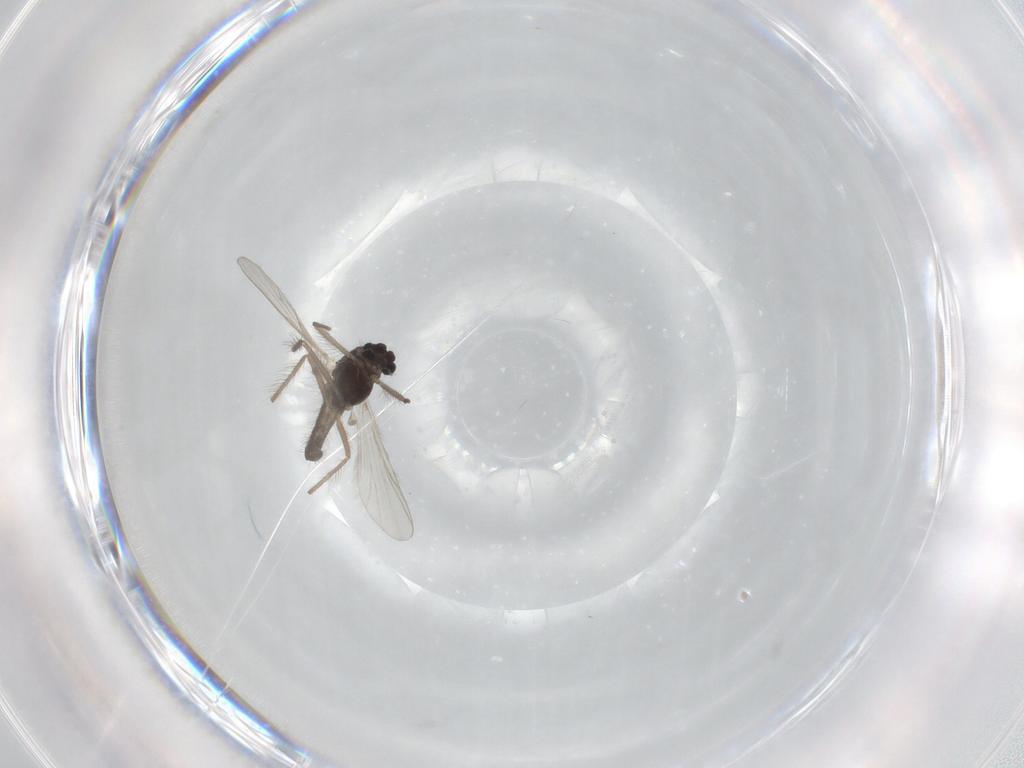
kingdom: Animalia
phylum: Arthropoda
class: Insecta
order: Diptera
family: Chironomidae
